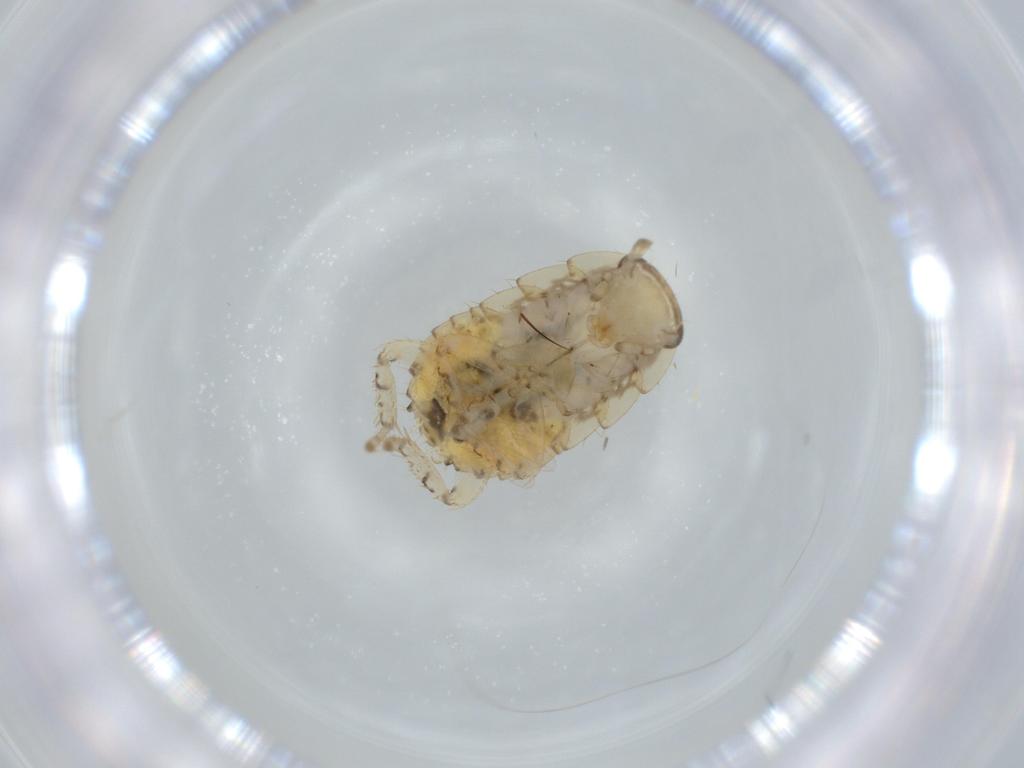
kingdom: Animalia
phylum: Arthropoda
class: Insecta
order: Blattodea
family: Ectobiidae
